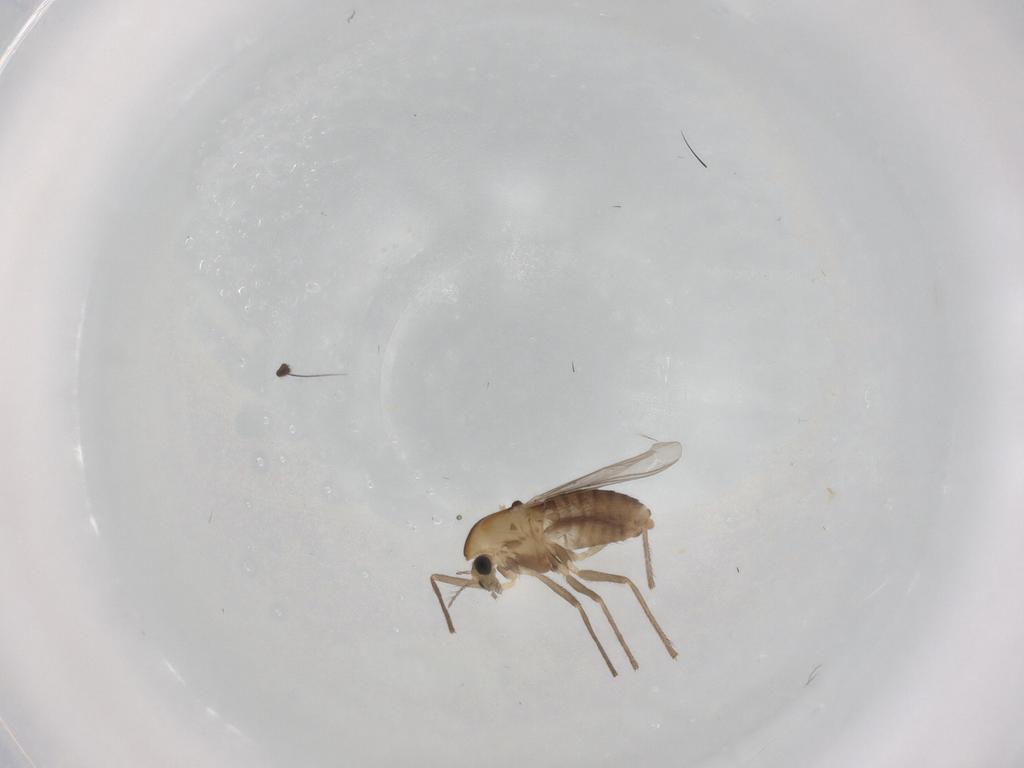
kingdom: Animalia
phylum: Arthropoda
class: Insecta
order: Diptera
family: Chironomidae
